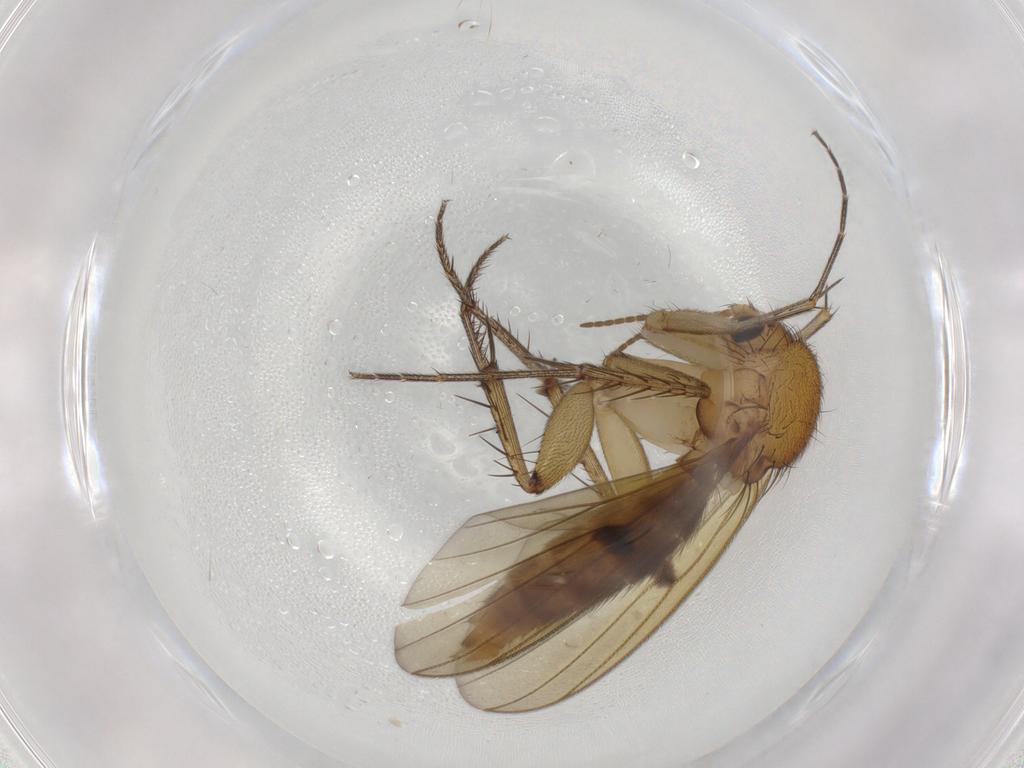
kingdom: Animalia
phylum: Arthropoda
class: Insecta
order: Diptera
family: Mycetophilidae
